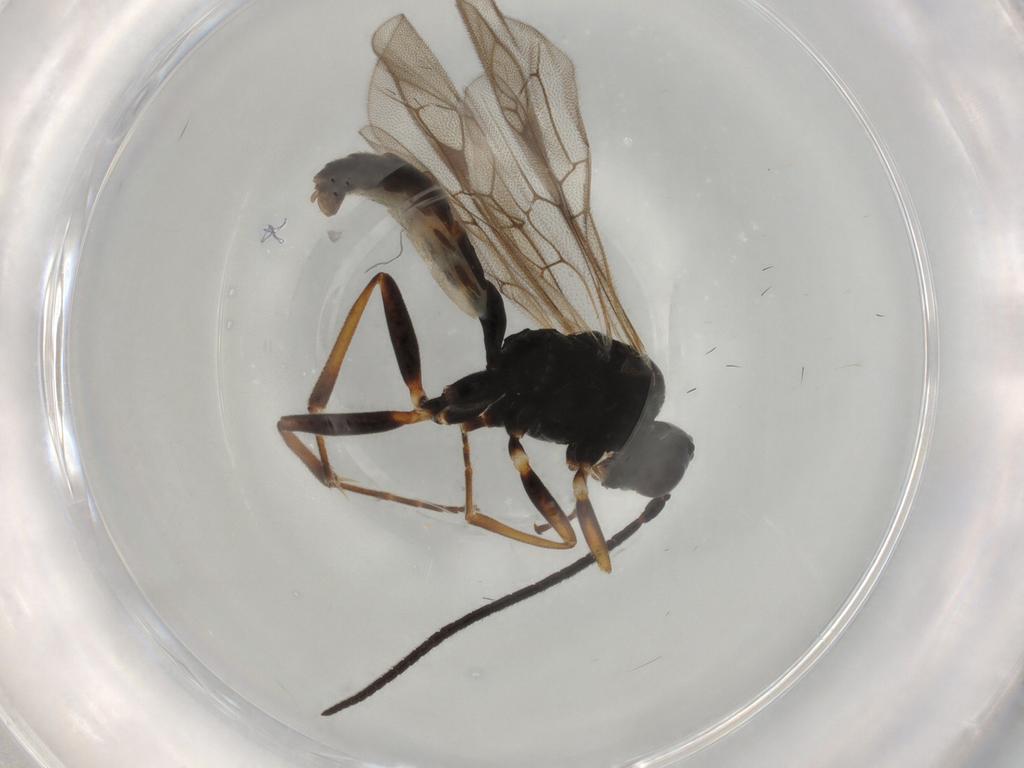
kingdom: Animalia
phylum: Arthropoda
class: Insecta
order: Hymenoptera
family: Ichneumonidae
